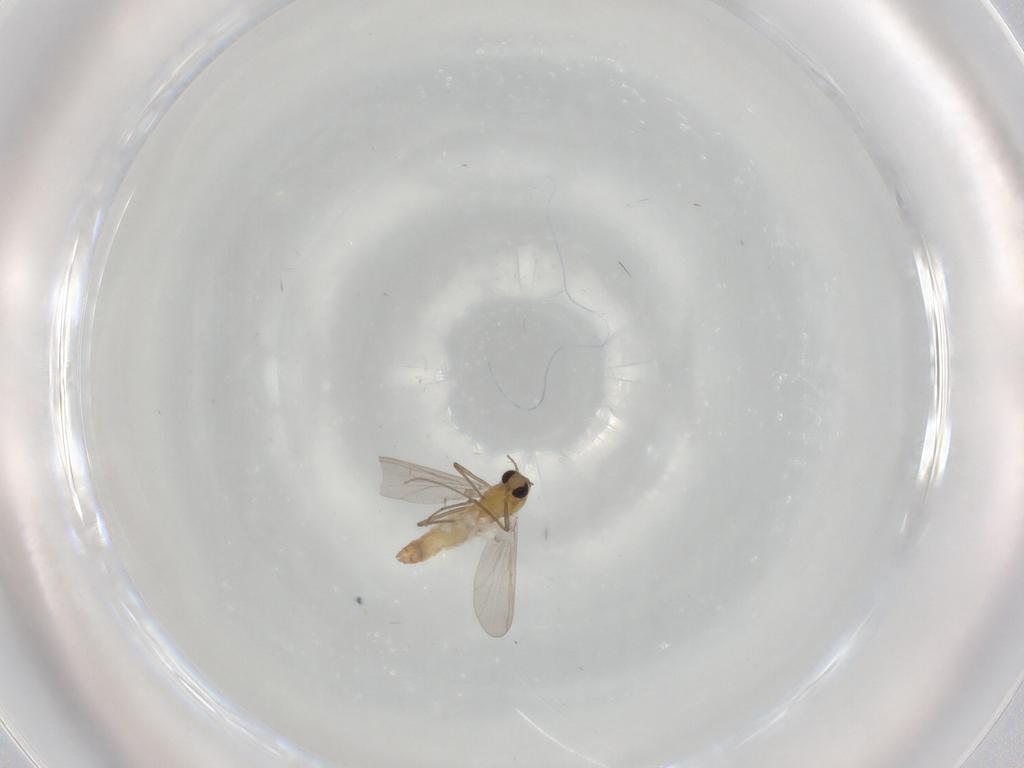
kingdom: Animalia
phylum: Arthropoda
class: Insecta
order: Diptera
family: Chironomidae
